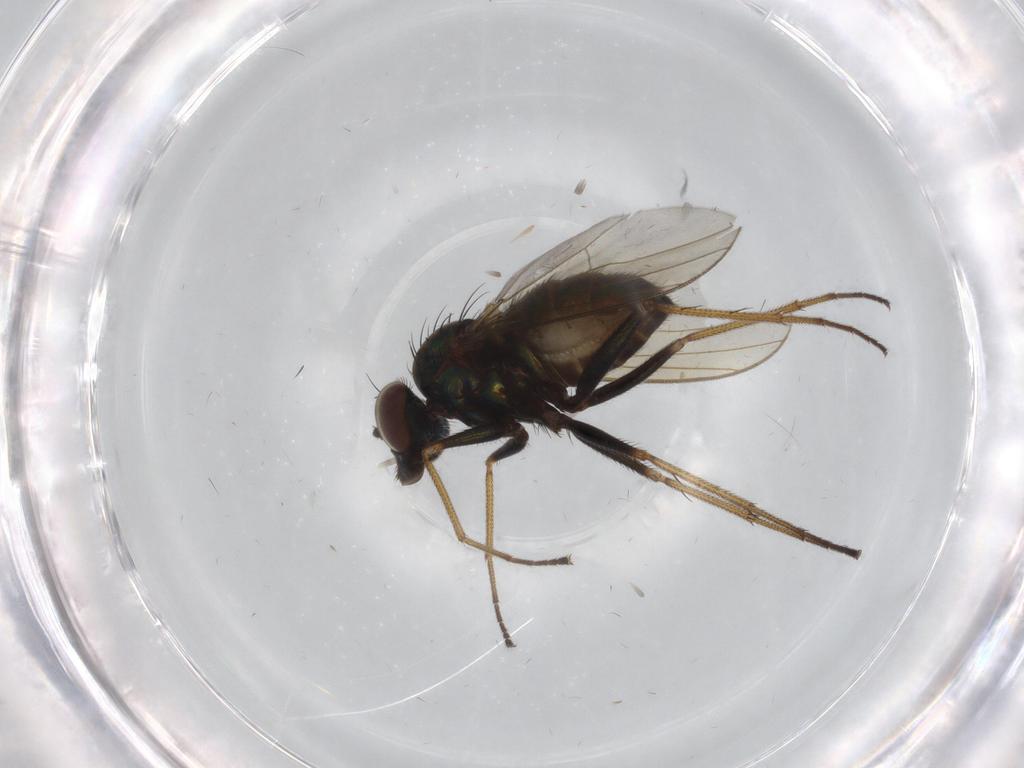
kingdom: Animalia
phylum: Arthropoda
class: Insecta
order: Diptera
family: Dolichopodidae
